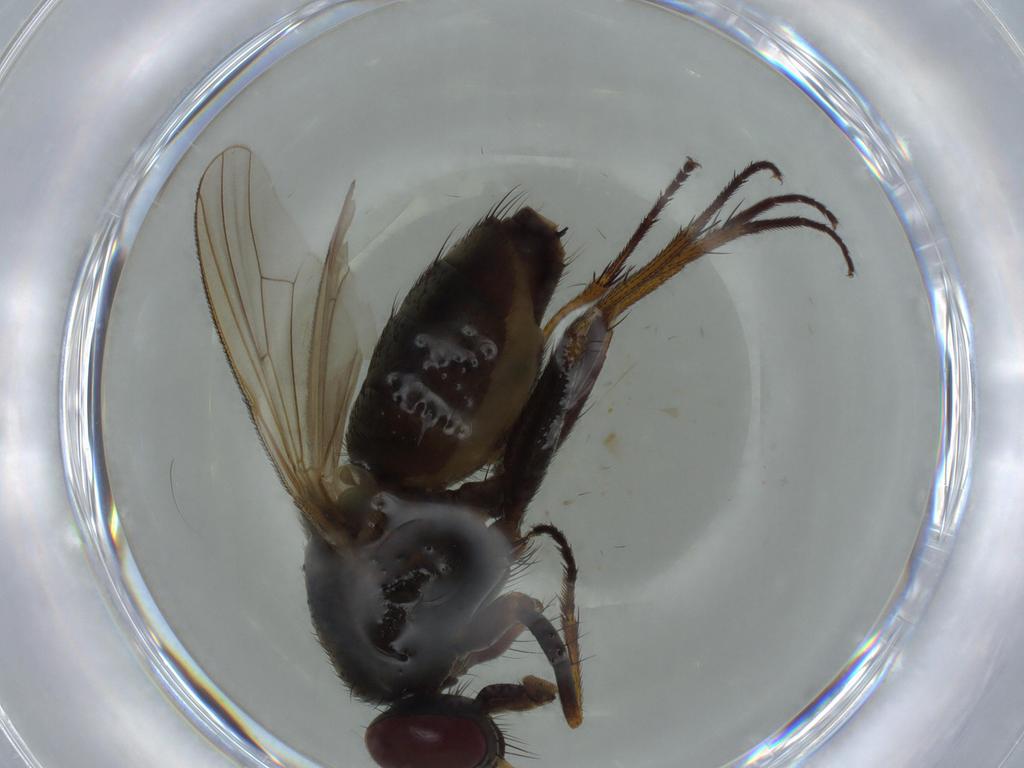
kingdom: Animalia
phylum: Arthropoda
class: Insecta
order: Diptera
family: Muscidae
